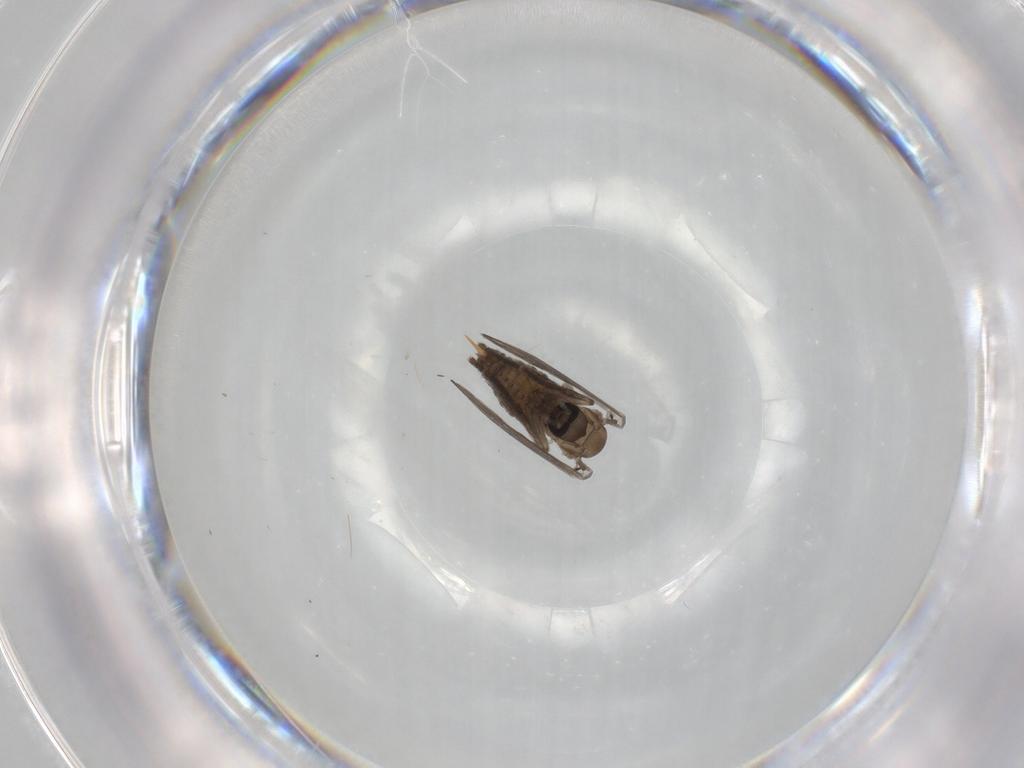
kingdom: Animalia
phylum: Arthropoda
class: Insecta
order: Diptera
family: Psychodidae
